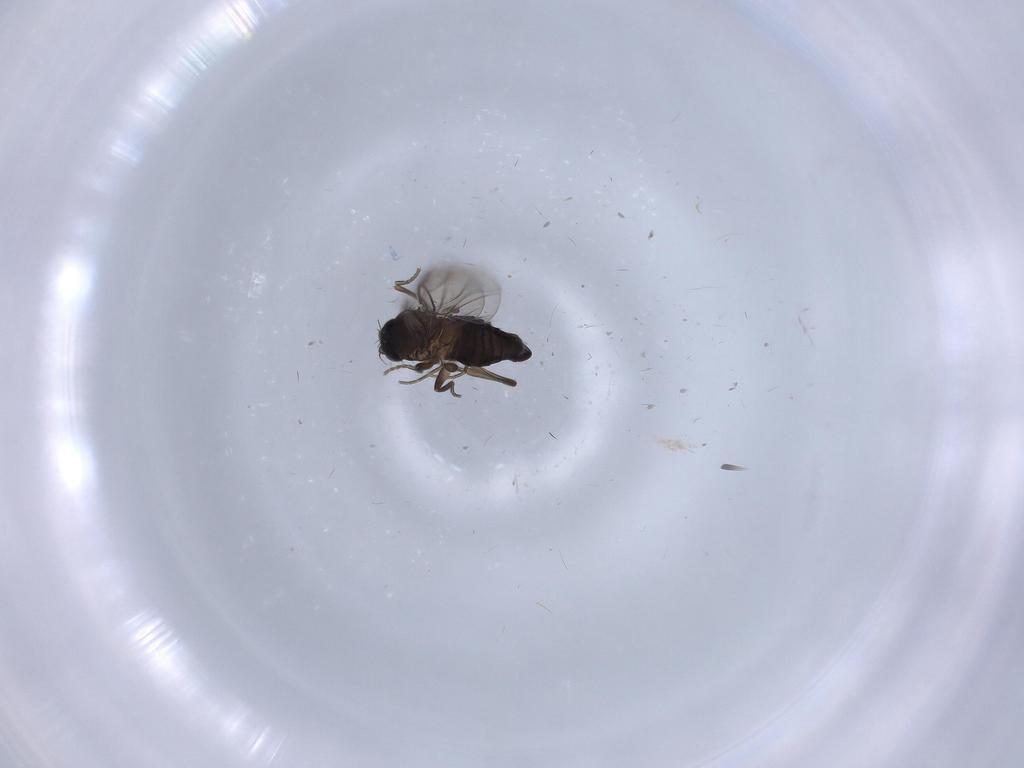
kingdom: Animalia
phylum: Arthropoda
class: Insecta
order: Diptera
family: Phoridae
